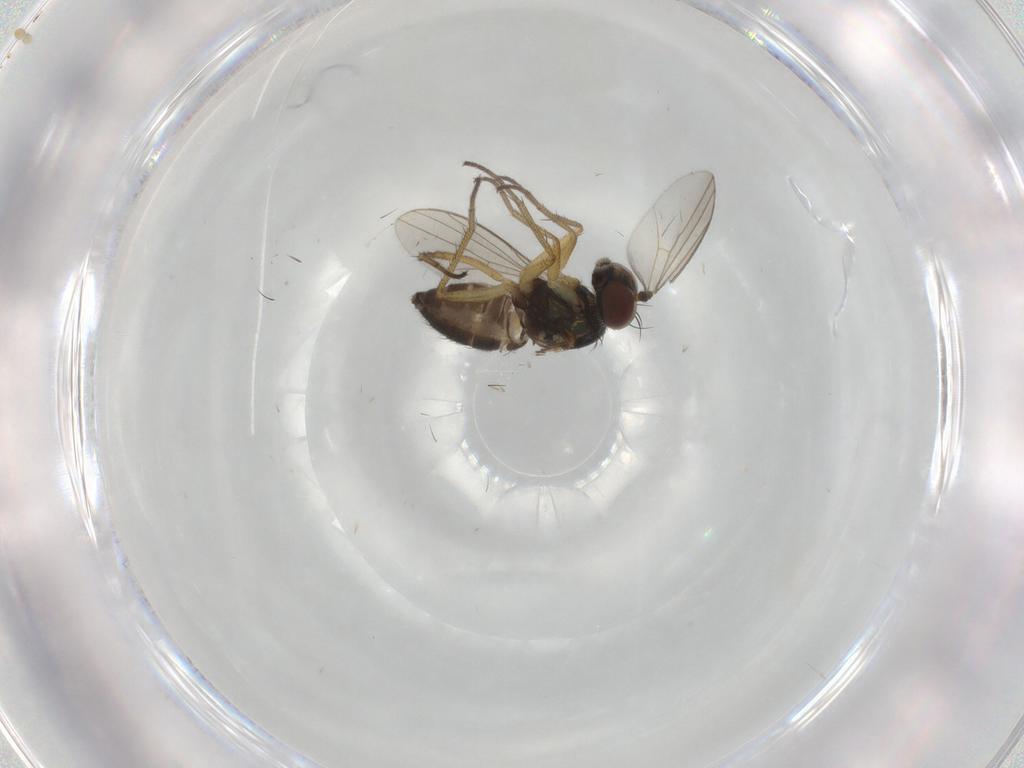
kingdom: Animalia
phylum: Arthropoda
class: Insecta
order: Diptera
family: Dolichopodidae
